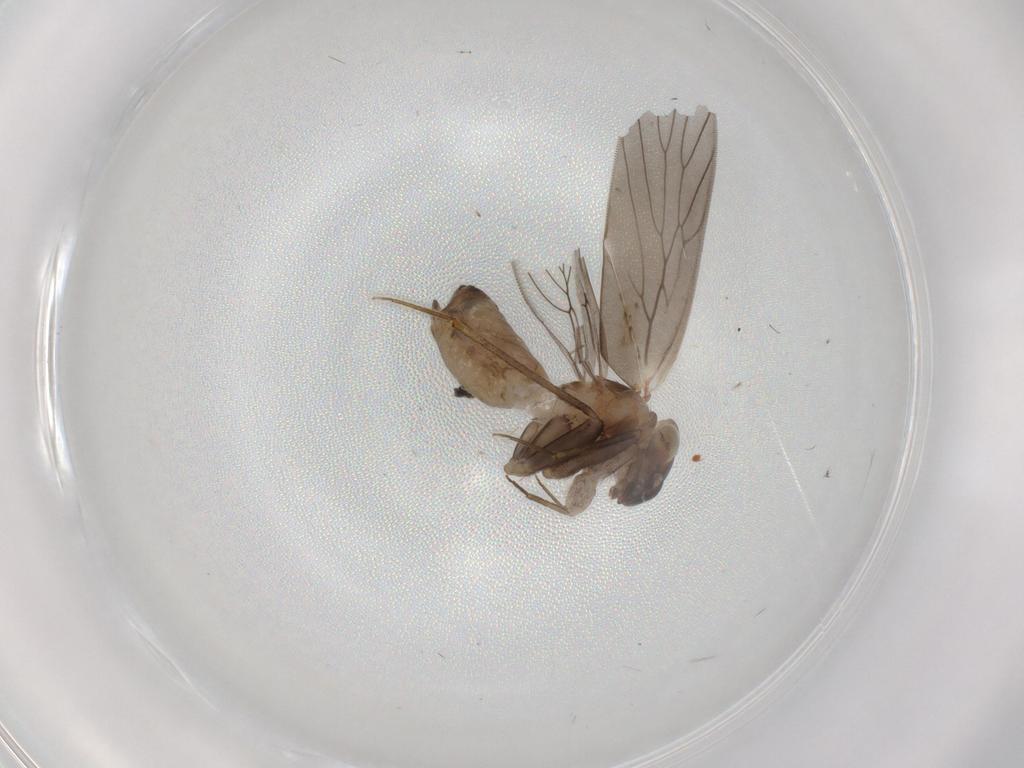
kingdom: Animalia
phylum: Arthropoda
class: Insecta
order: Psocodea
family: Lepidopsocidae
